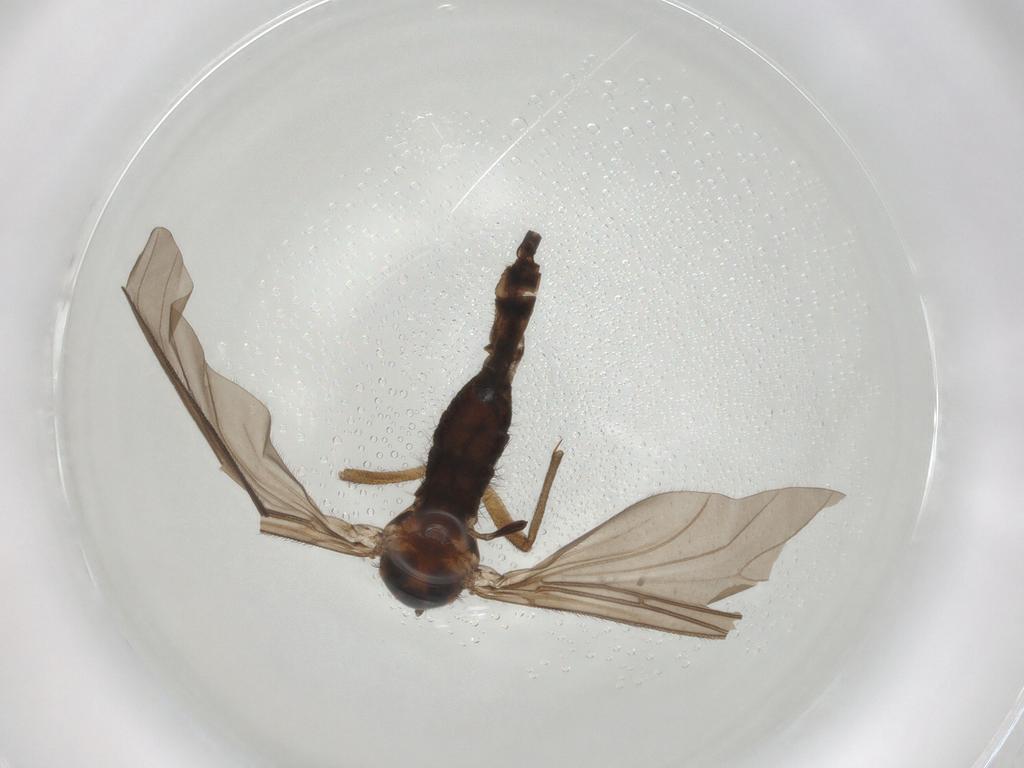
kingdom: Animalia
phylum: Arthropoda
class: Insecta
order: Diptera
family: Sciaridae
